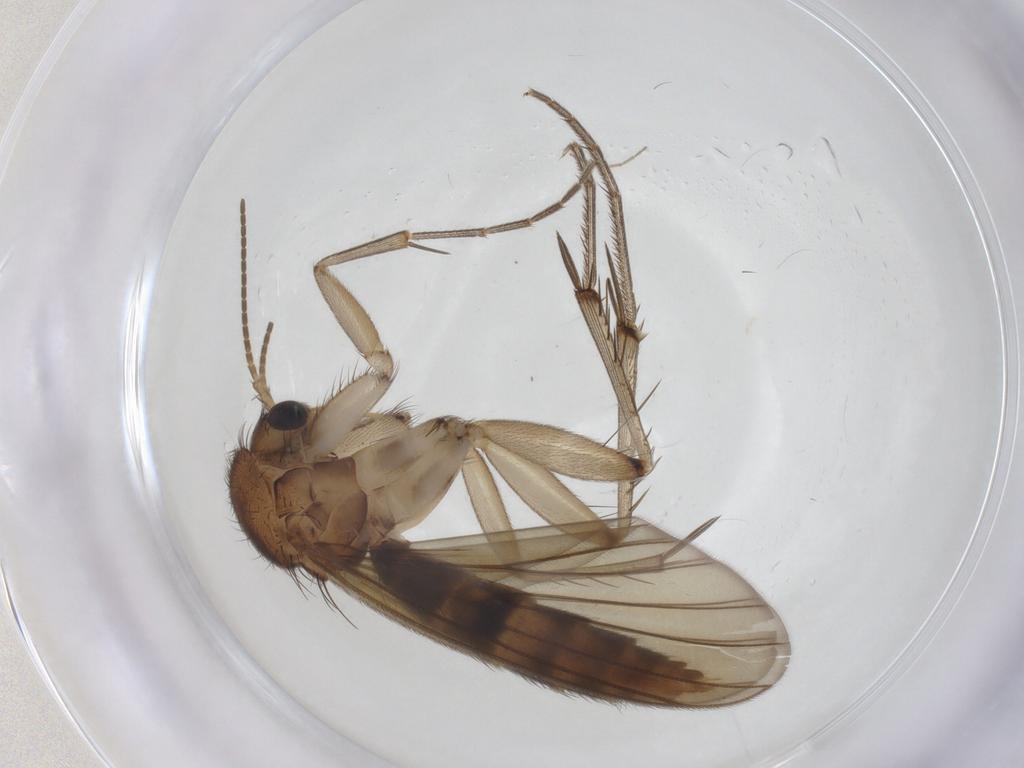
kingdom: Animalia
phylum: Arthropoda
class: Insecta
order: Diptera
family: Mycetophilidae
